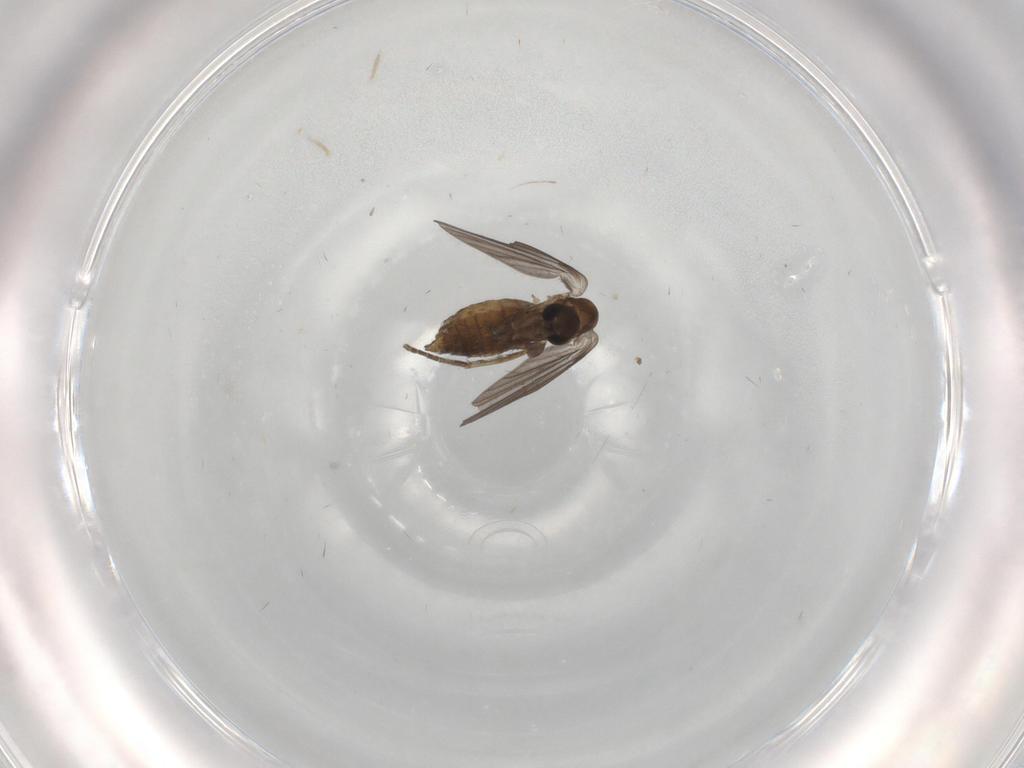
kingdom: Animalia
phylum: Arthropoda
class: Insecta
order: Diptera
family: Psychodidae
